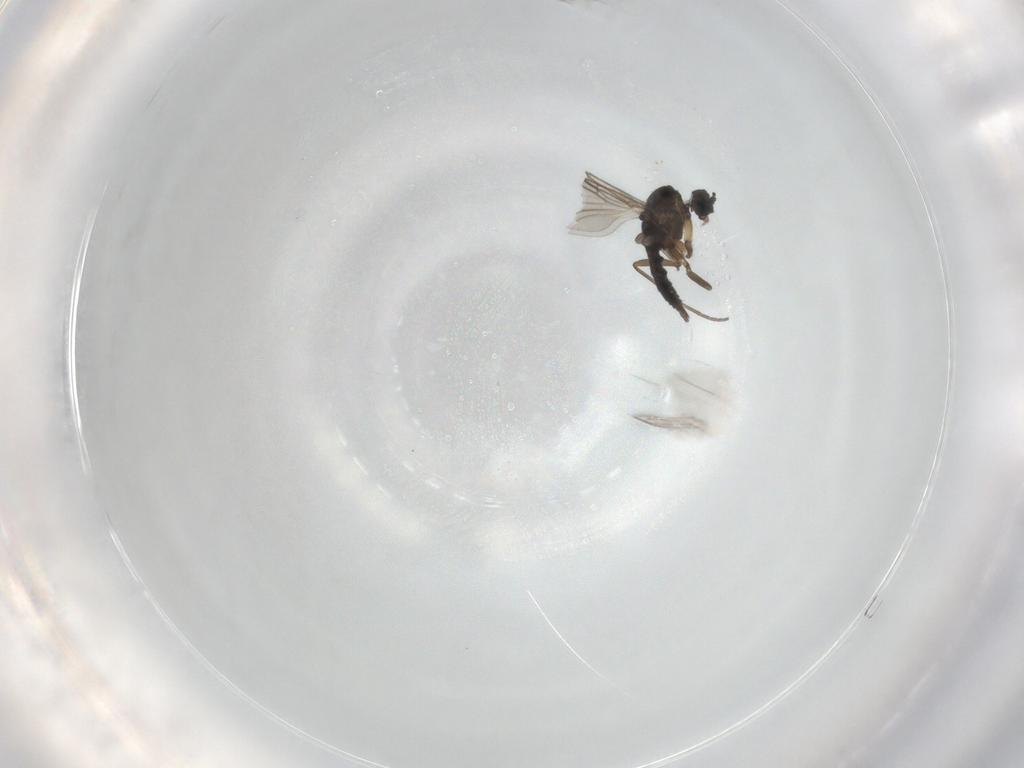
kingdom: Animalia
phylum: Arthropoda
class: Insecta
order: Diptera
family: Sciaridae
